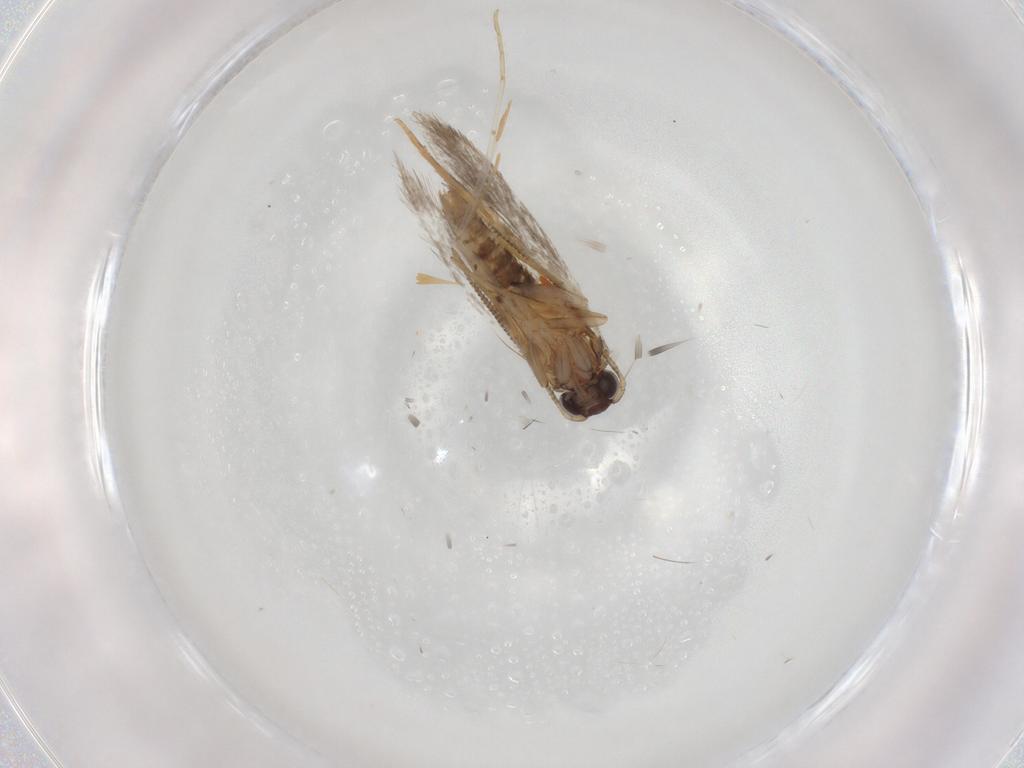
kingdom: Animalia
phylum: Arthropoda
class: Insecta
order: Lepidoptera
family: Tineidae
